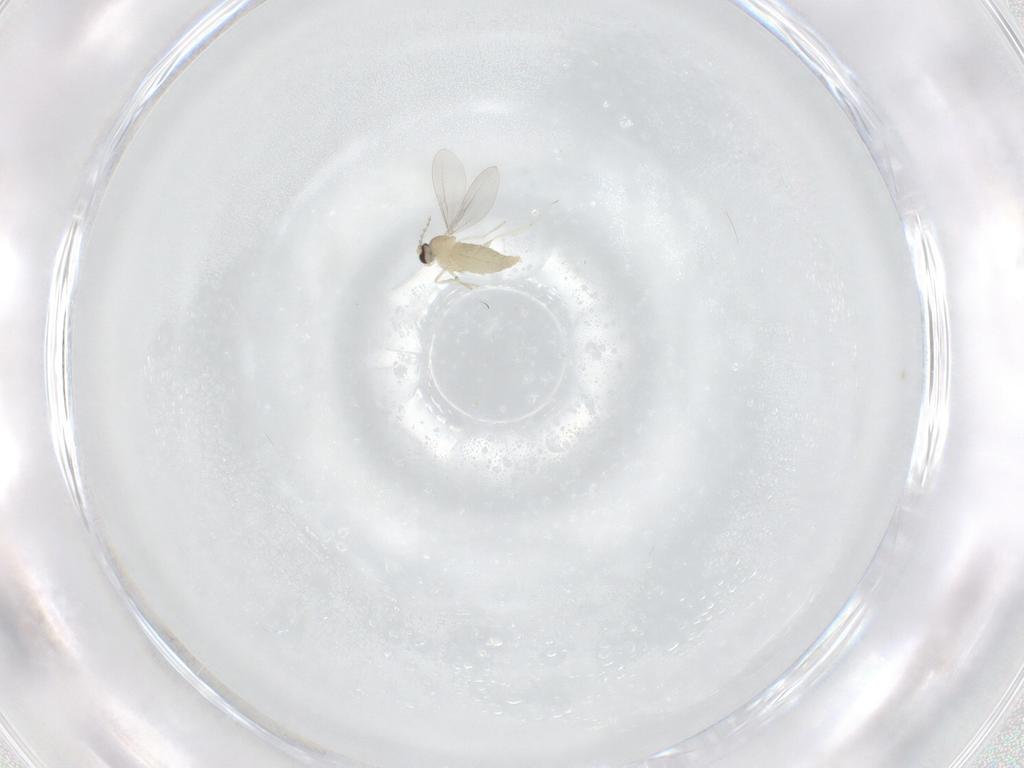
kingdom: Animalia
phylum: Arthropoda
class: Insecta
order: Diptera
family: Cecidomyiidae
